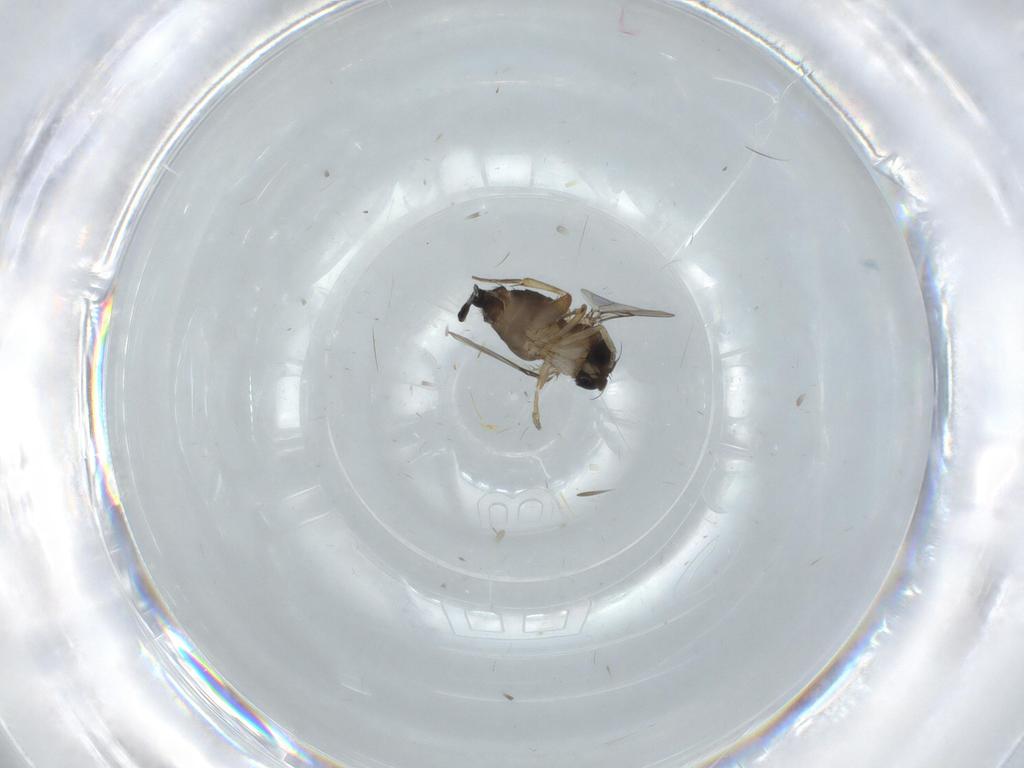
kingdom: Animalia
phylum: Arthropoda
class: Insecta
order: Diptera
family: Phoridae
